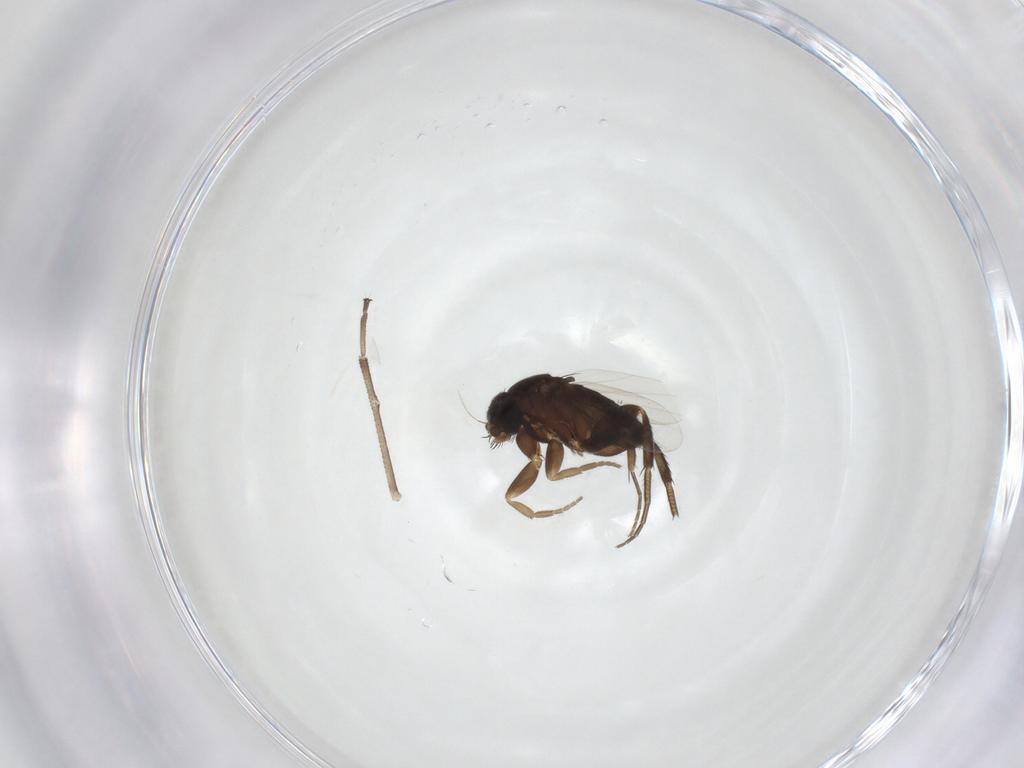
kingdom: Animalia
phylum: Arthropoda
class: Insecta
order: Diptera
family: Phoridae
